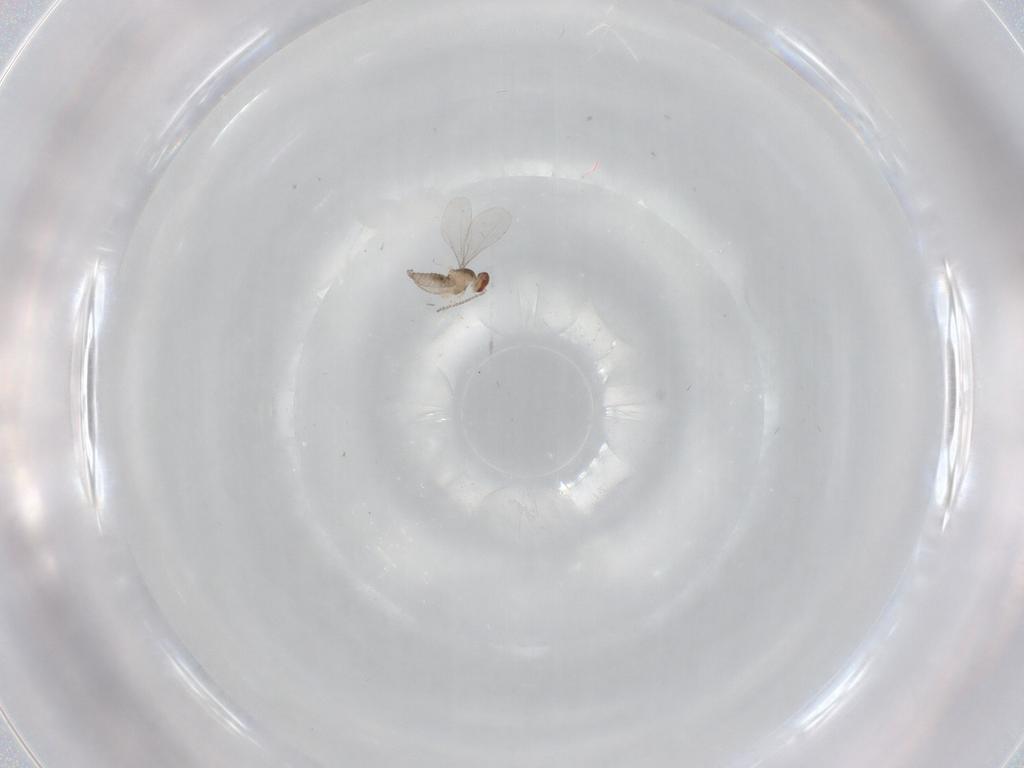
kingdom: Animalia
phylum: Arthropoda
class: Insecta
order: Diptera
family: Cecidomyiidae
